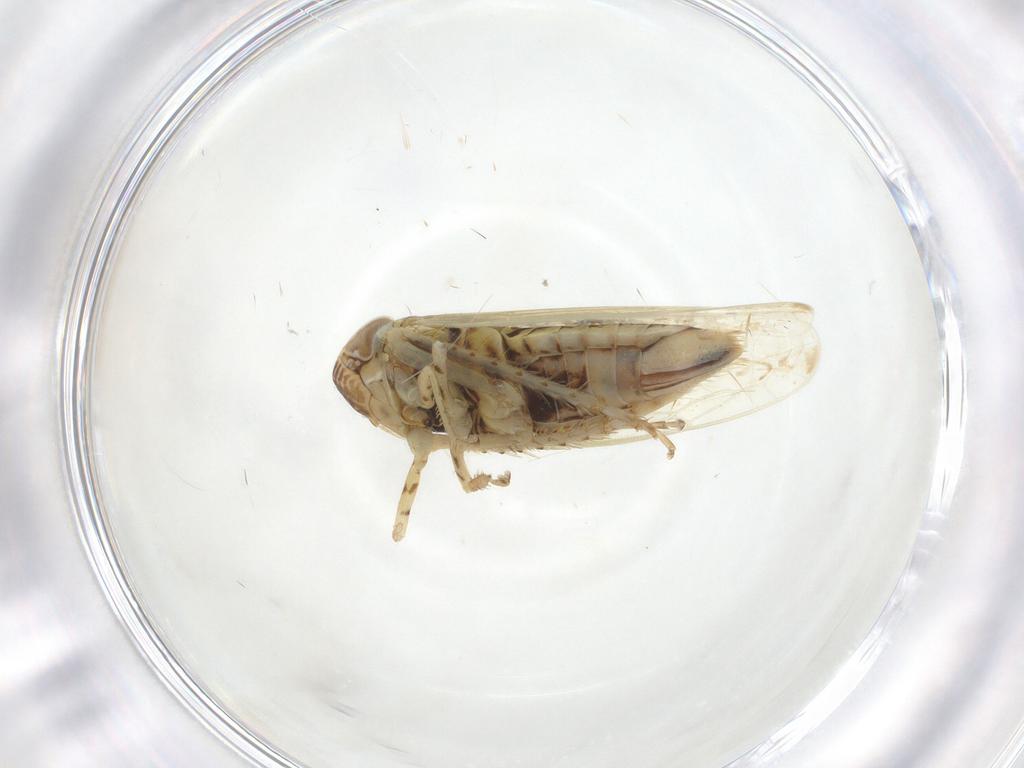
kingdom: Animalia
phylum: Arthropoda
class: Insecta
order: Hemiptera
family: Cicadellidae
